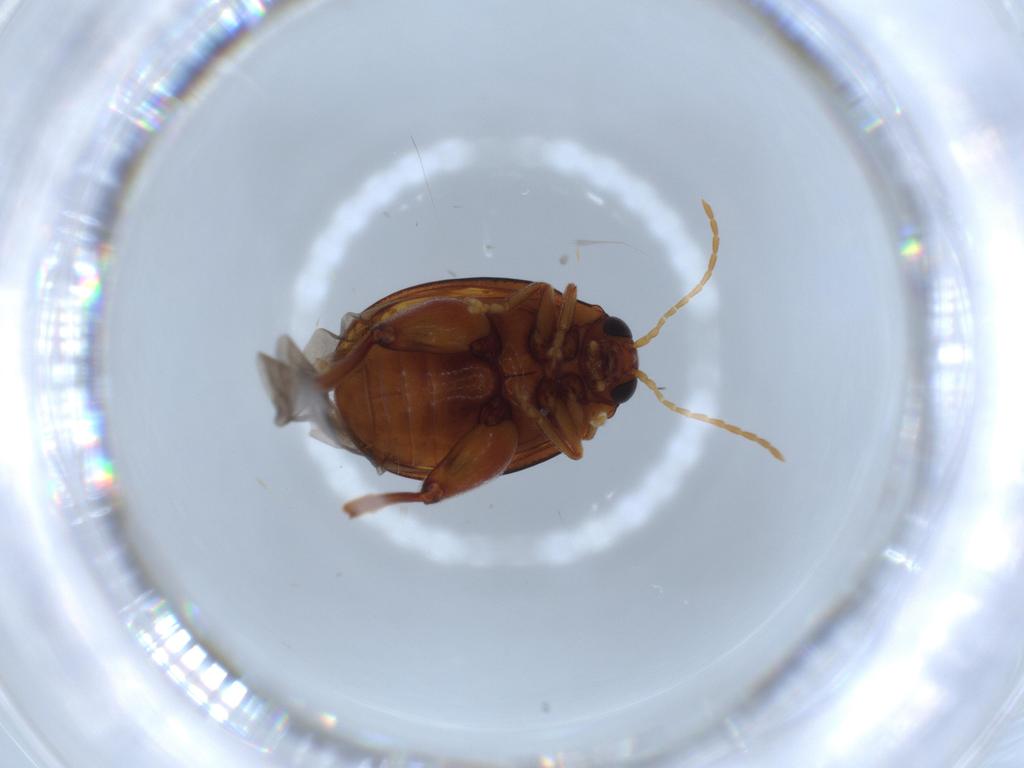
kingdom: Animalia
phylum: Arthropoda
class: Insecta
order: Coleoptera
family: Chrysomelidae
